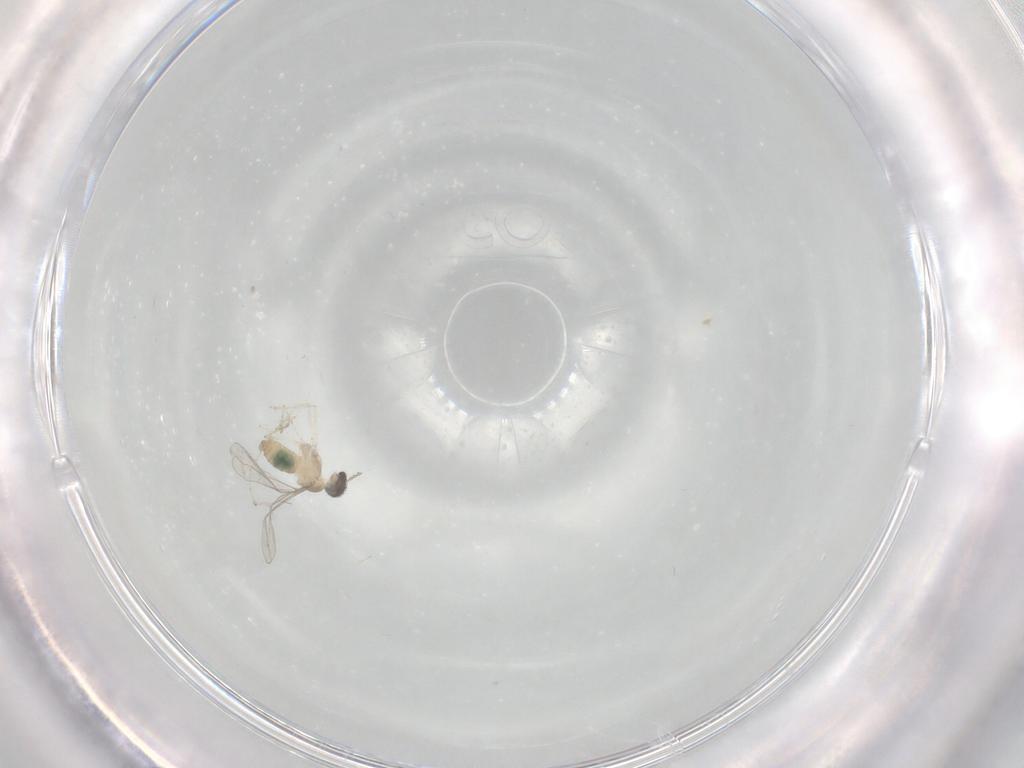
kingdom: Animalia
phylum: Arthropoda
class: Insecta
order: Diptera
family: Cecidomyiidae
